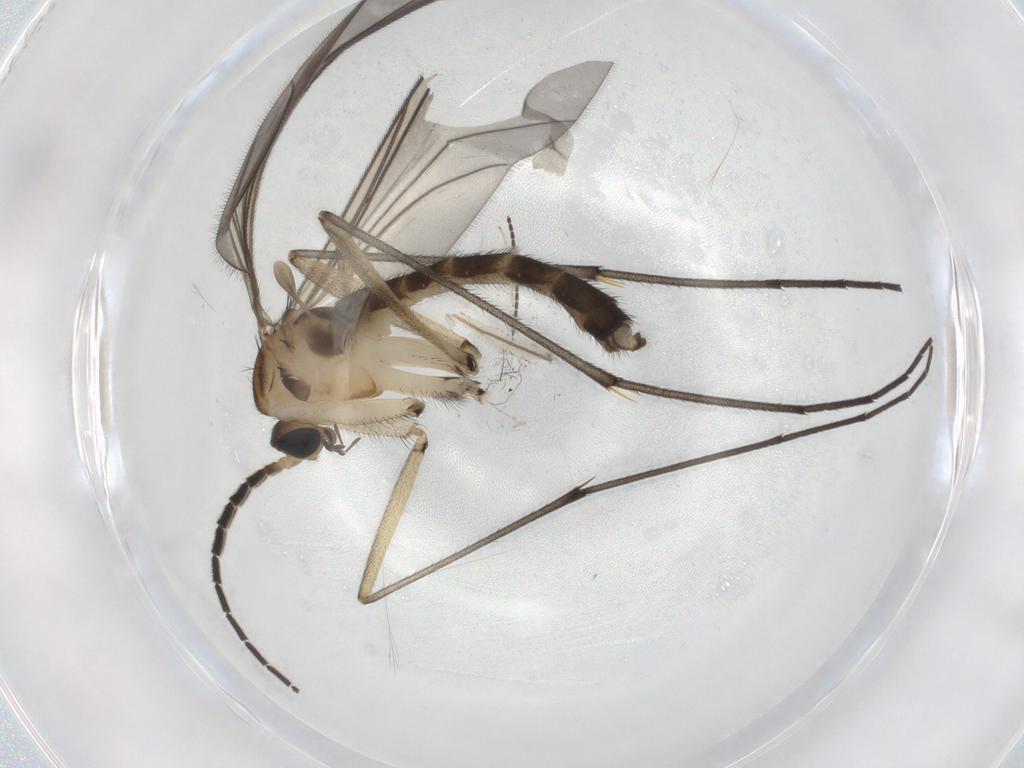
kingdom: Animalia
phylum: Arthropoda
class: Insecta
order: Diptera
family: Sciaridae
